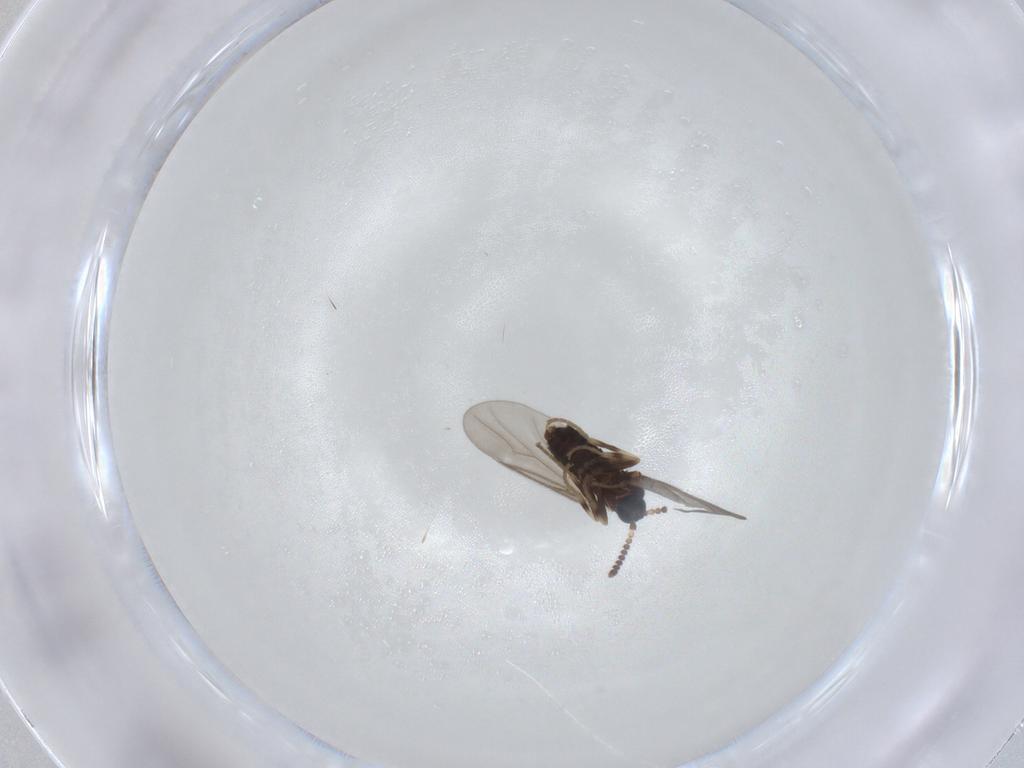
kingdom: Animalia
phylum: Arthropoda
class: Insecta
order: Diptera
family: Scatopsidae
